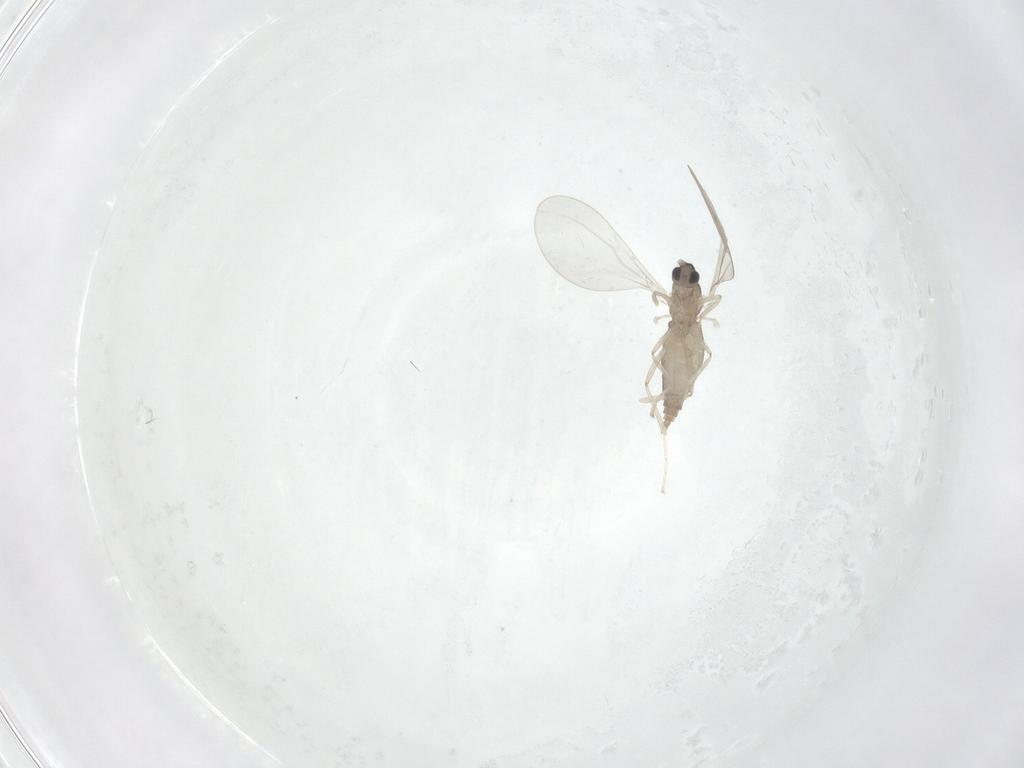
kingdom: Animalia
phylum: Arthropoda
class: Insecta
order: Diptera
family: Cecidomyiidae
